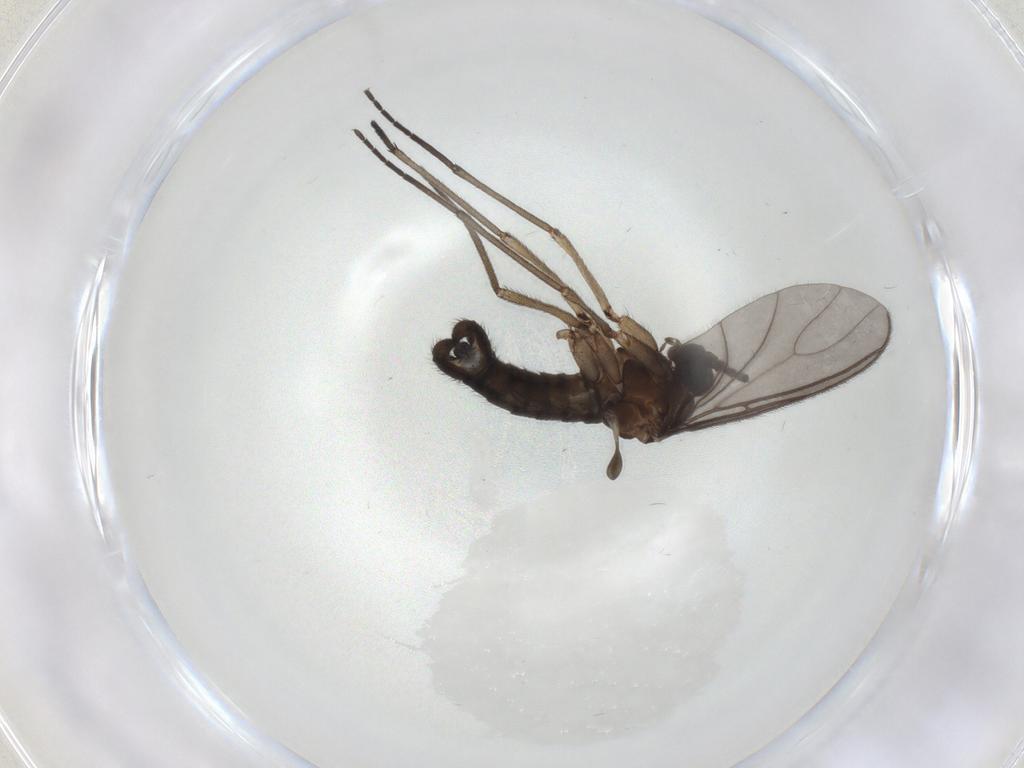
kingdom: Animalia
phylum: Arthropoda
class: Insecta
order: Diptera
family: Sciaridae
